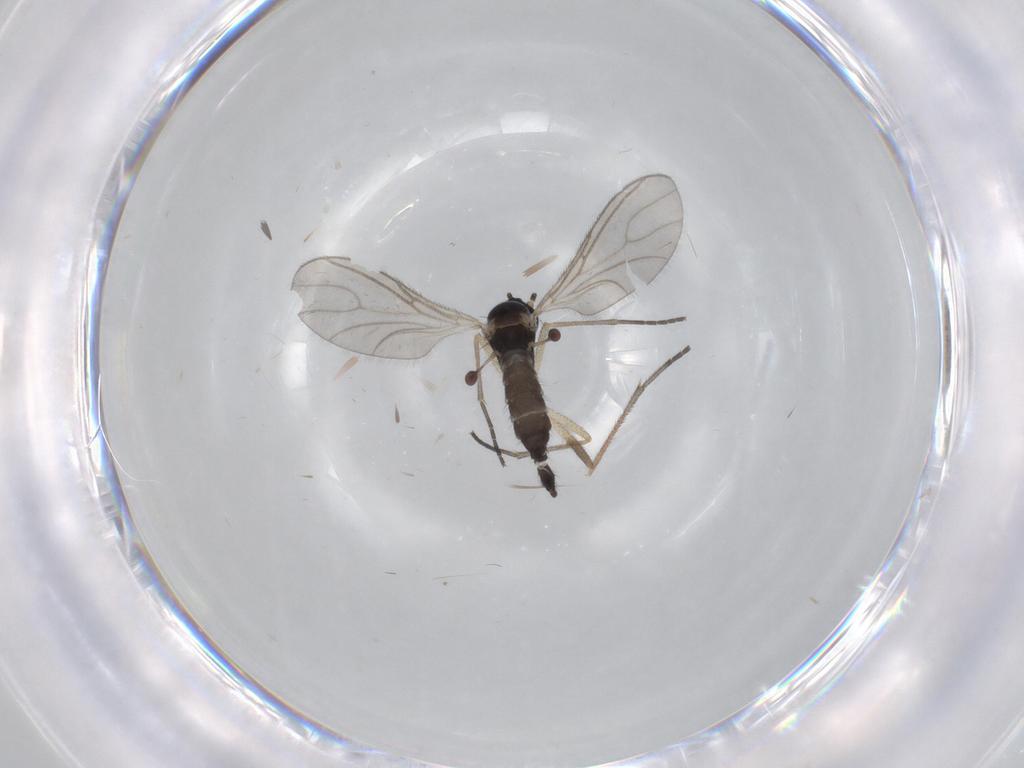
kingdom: Animalia
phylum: Arthropoda
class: Insecta
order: Diptera
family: Sciaridae
